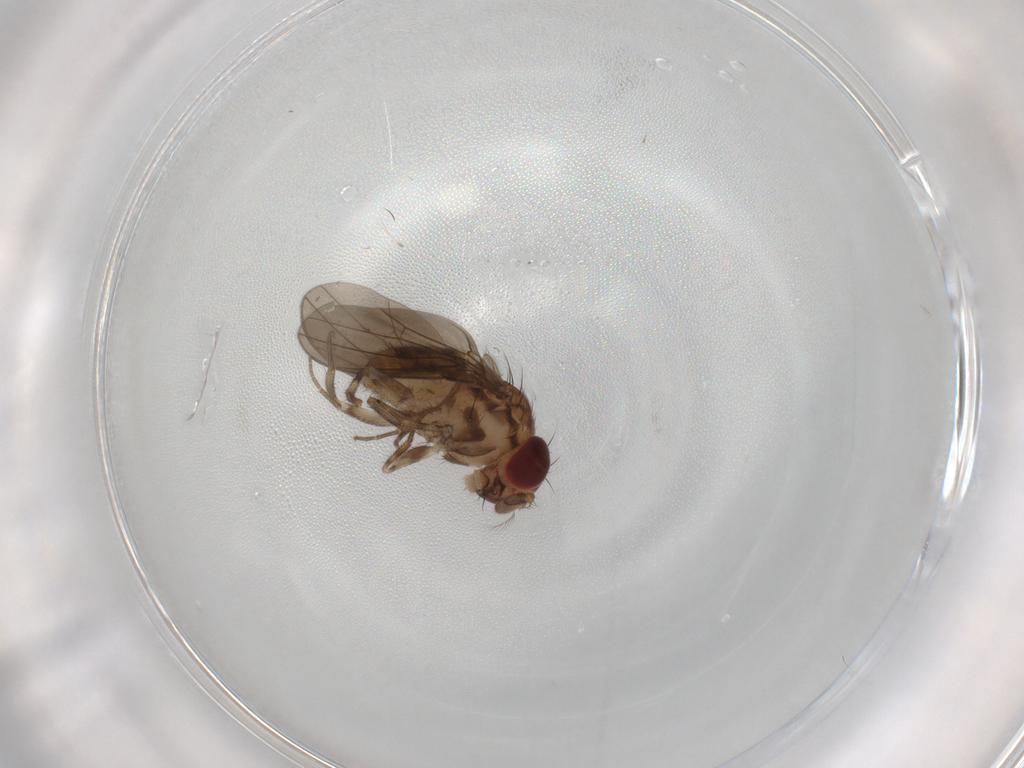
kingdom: Animalia
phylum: Arthropoda
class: Insecta
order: Diptera
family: Drosophilidae
